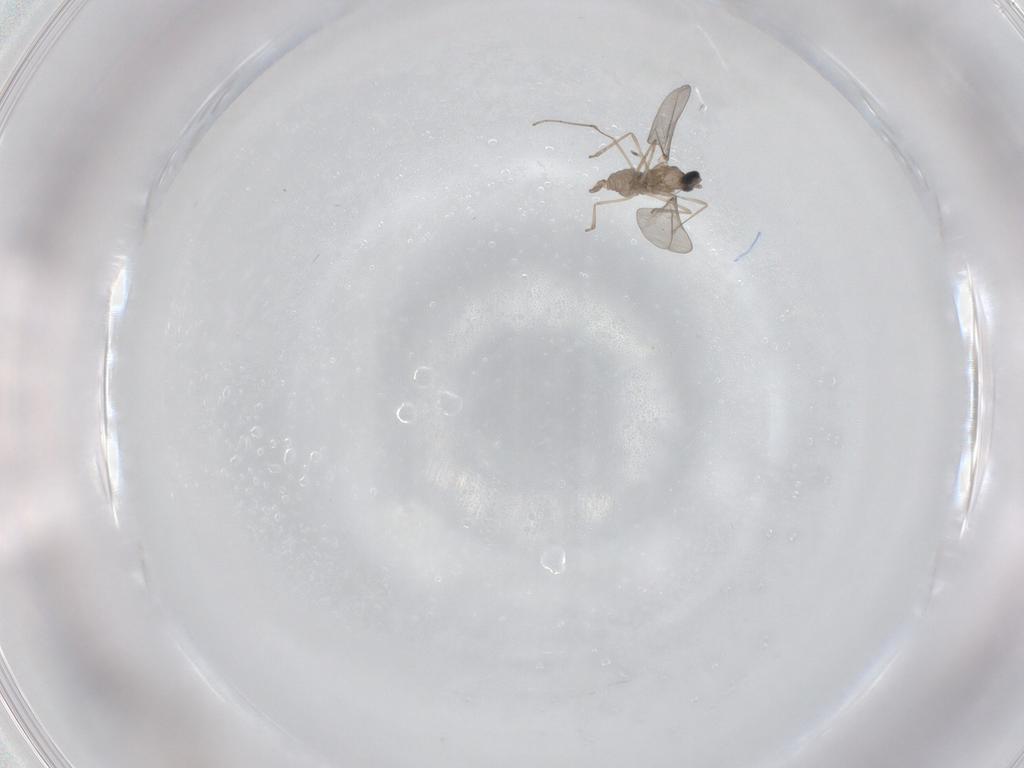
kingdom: Animalia
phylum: Arthropoda
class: Insecta
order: Diptera
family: Cecidomyiidae
